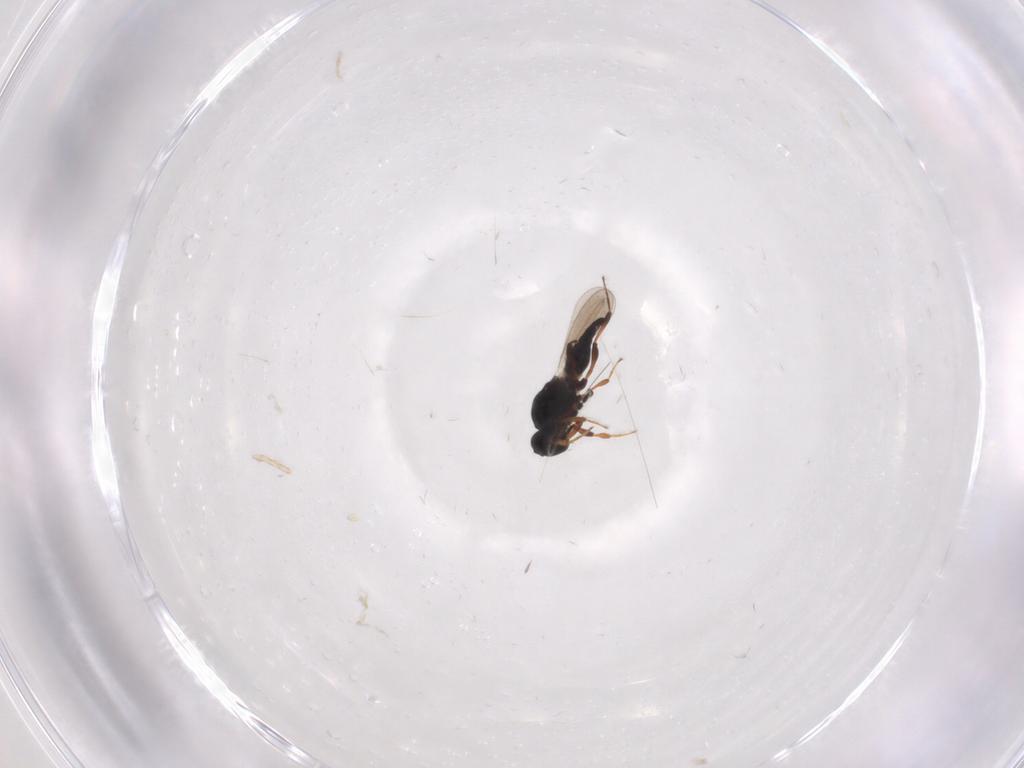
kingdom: Animalia
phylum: Arthropoda
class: Insecta
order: Hymenoptera
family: Platygastridae
